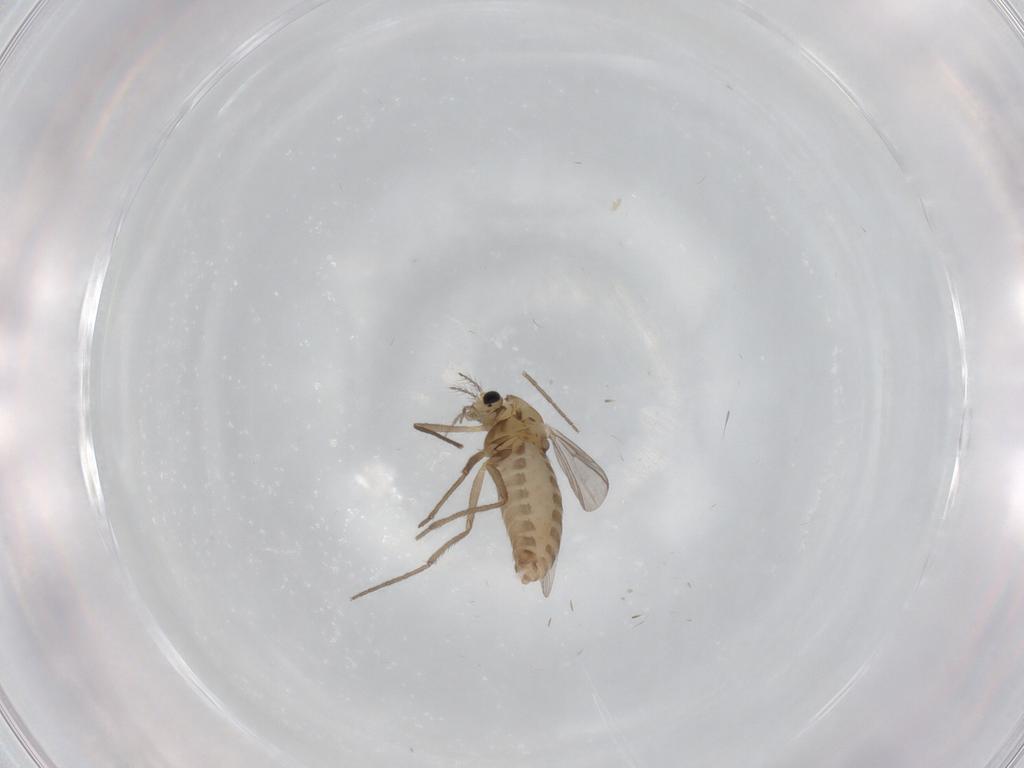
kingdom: Animalia
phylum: Arthropoda
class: Insecta
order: Diptera
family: Chironomidae
